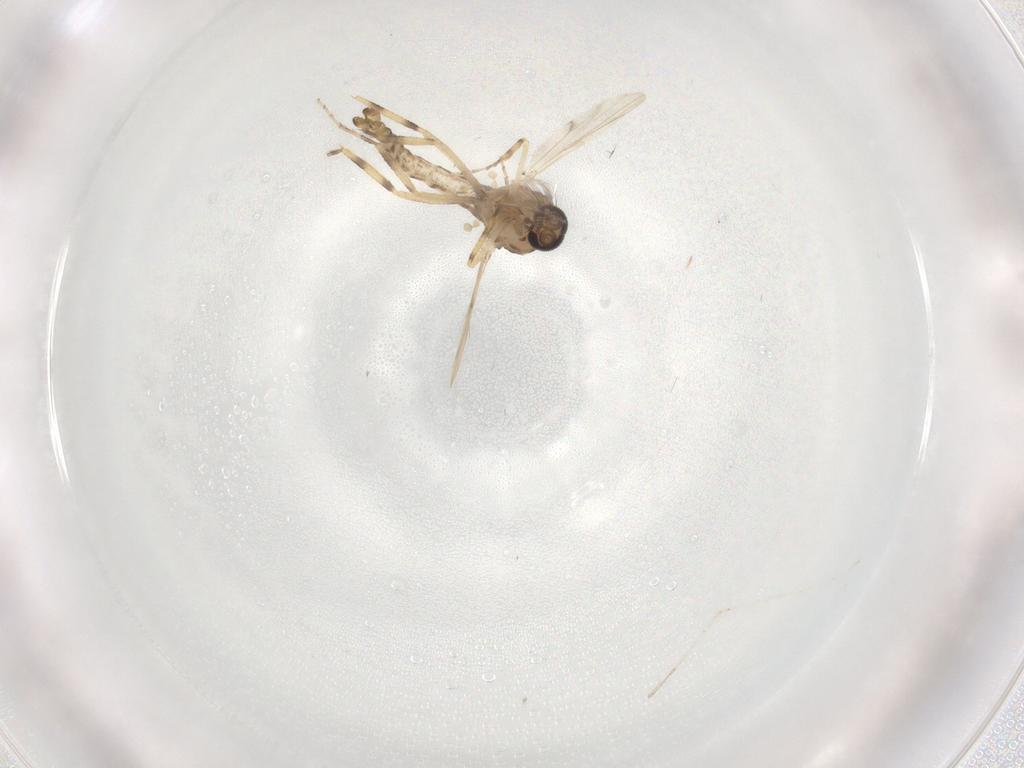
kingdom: Animalia
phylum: Arthropoda
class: Insecta
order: Diptera
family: Ceratopogonidae
